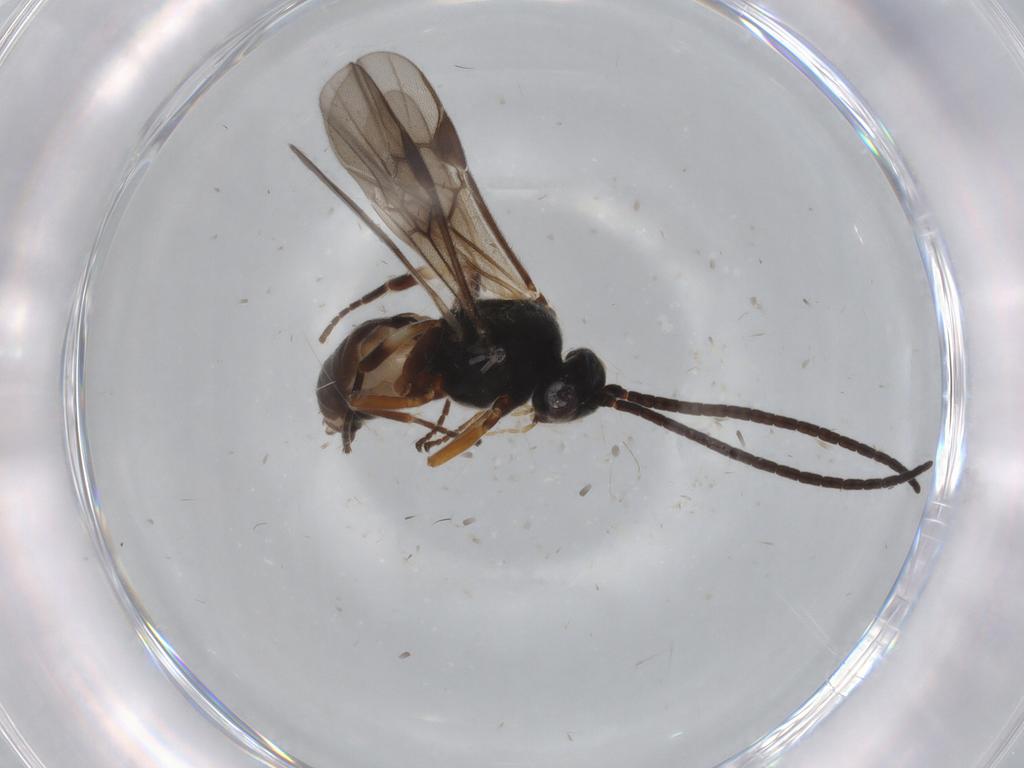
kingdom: Animalia
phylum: Arthropoda
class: Insecta
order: Hymenoptera
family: Braconidae
